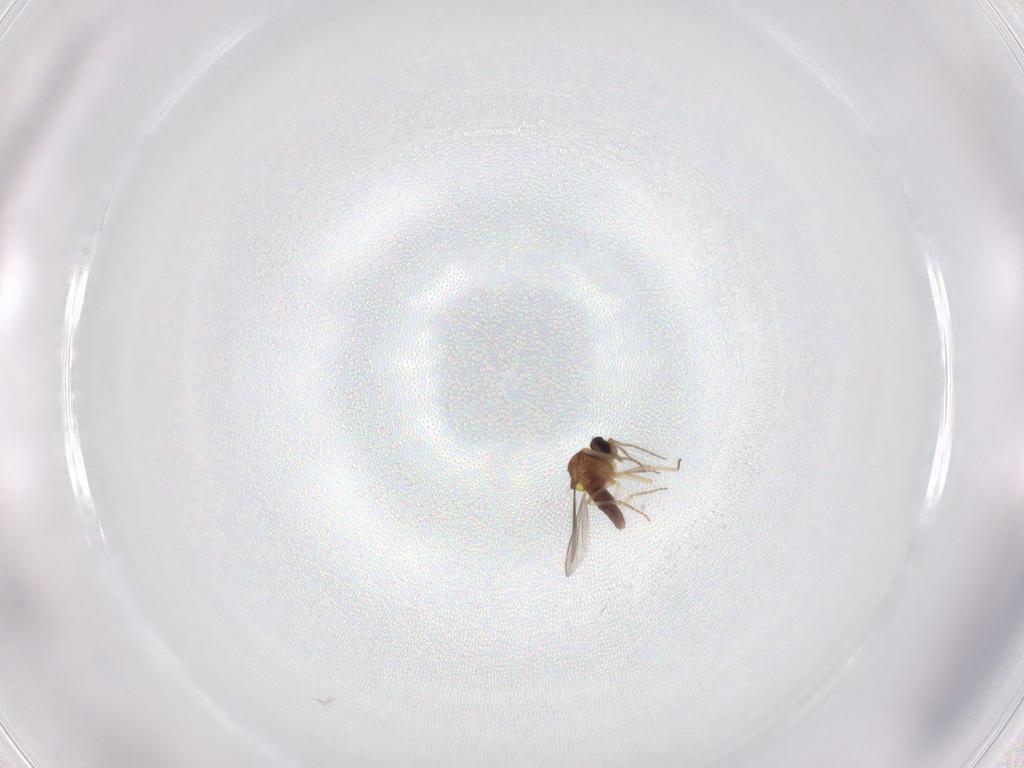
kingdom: Animalia
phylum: Arthropoda
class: Insecta
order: Diptera
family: Ceratopogonidae
